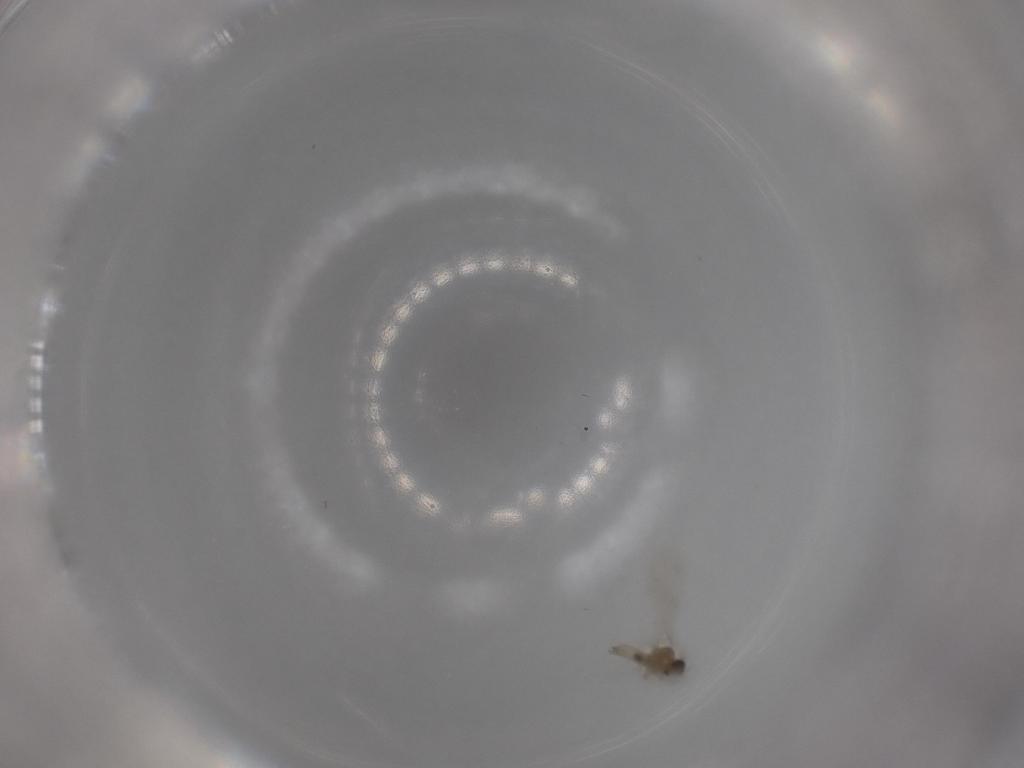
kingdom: Animalia
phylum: Arthropoda
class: Insecta
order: Diptera
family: Cecidomyiidae
